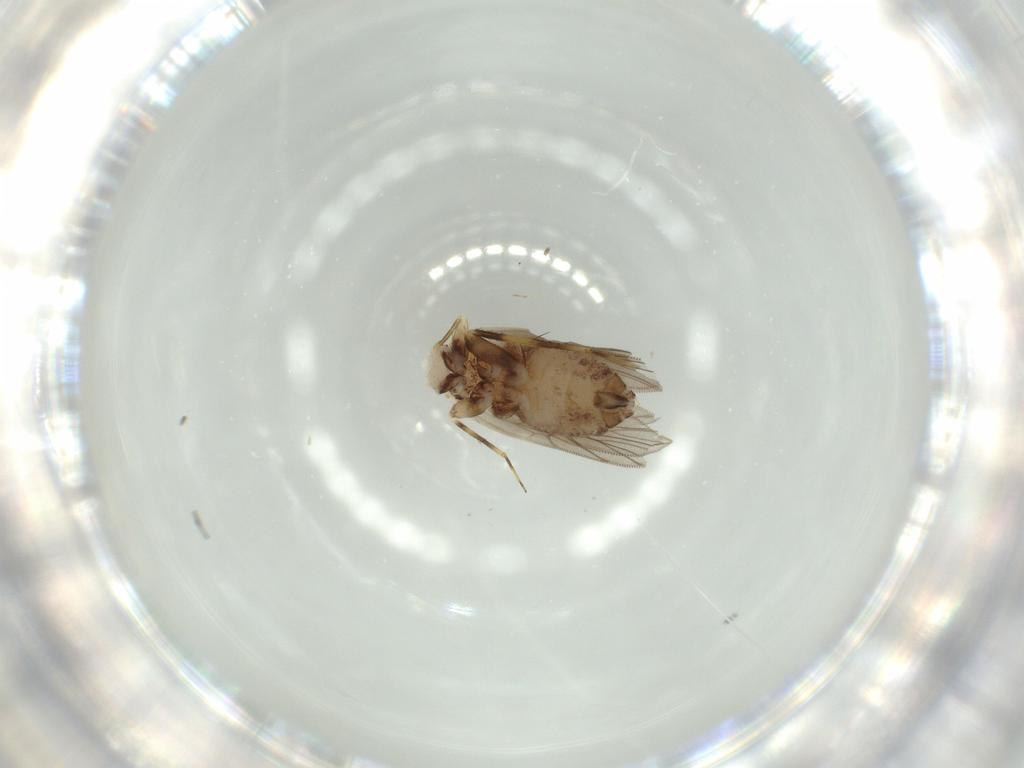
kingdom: Animalia
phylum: Arthropoda
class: Insecta
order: Psocodea
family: Lepidopsocidae
